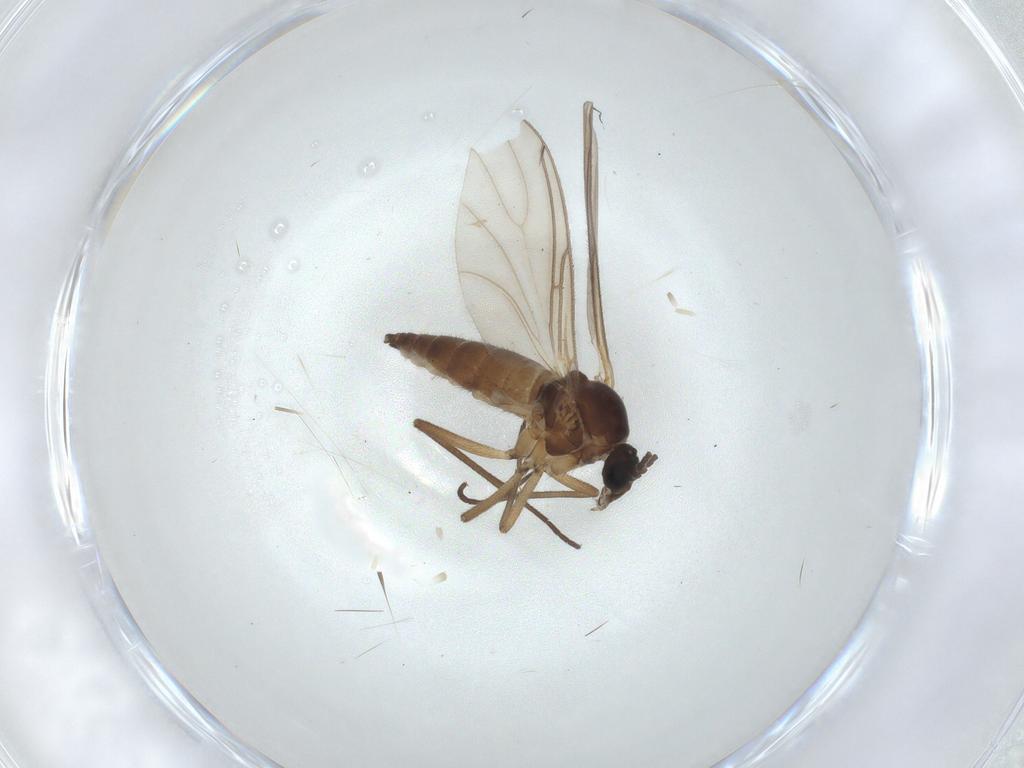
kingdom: Animalia
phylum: Arthropoda
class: Insecta
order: Diptera
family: Sciaridae
